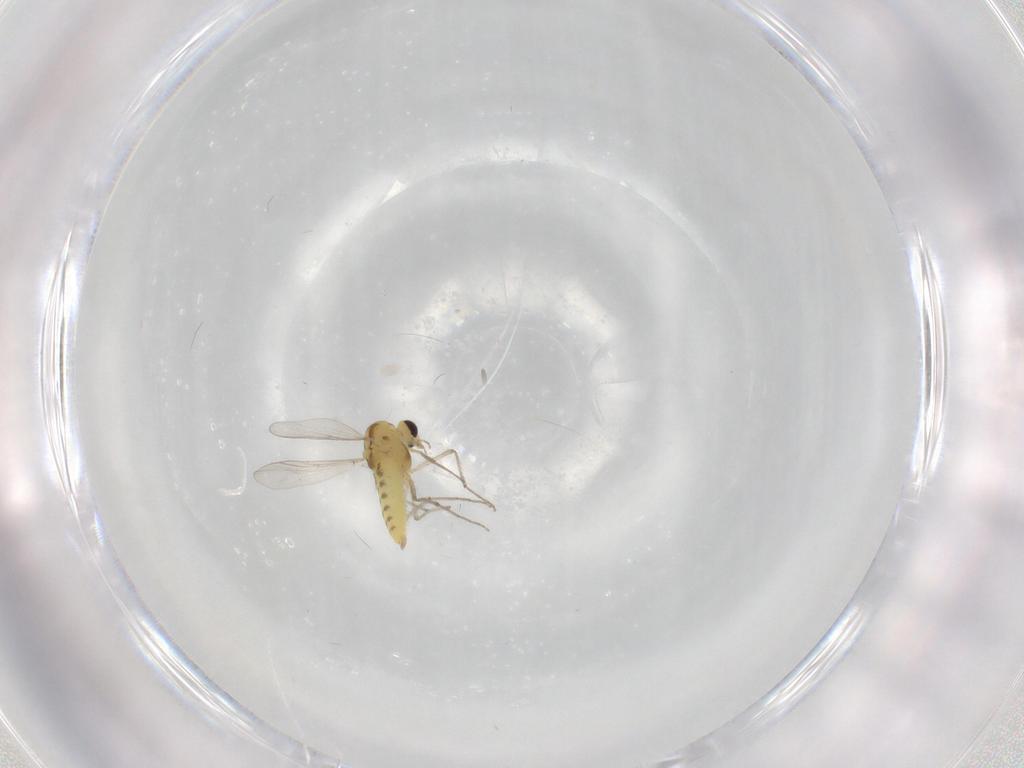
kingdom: Animalia
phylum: Arthropoda
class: Insecta
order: Diptera
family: Chironomidae
